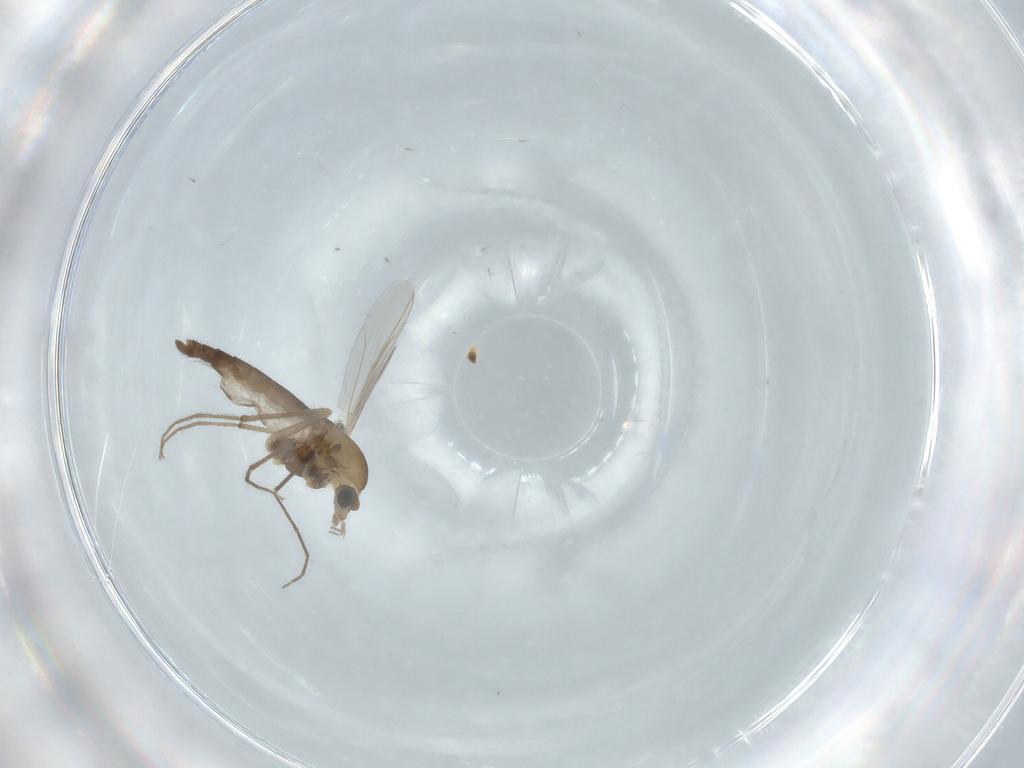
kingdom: Animalia
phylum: Arthropoda
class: Insecta
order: Diptera
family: Chironomidae
